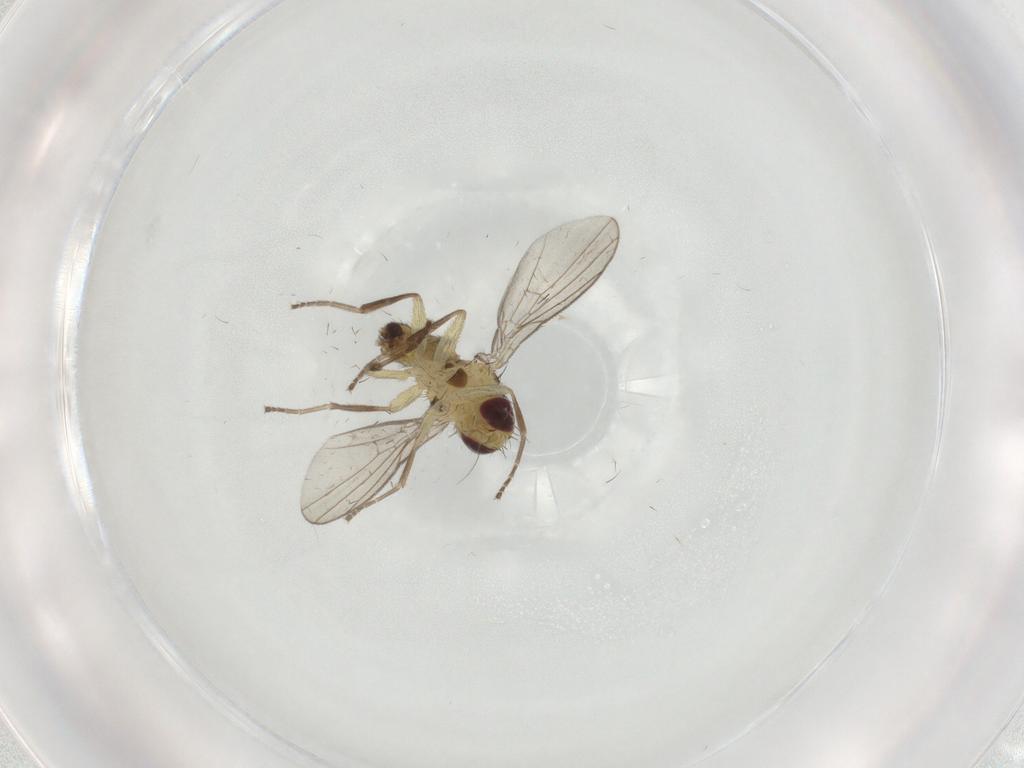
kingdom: Animalia
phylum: Arthropoda
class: Insecta
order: Diptera
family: Agromyzidae
